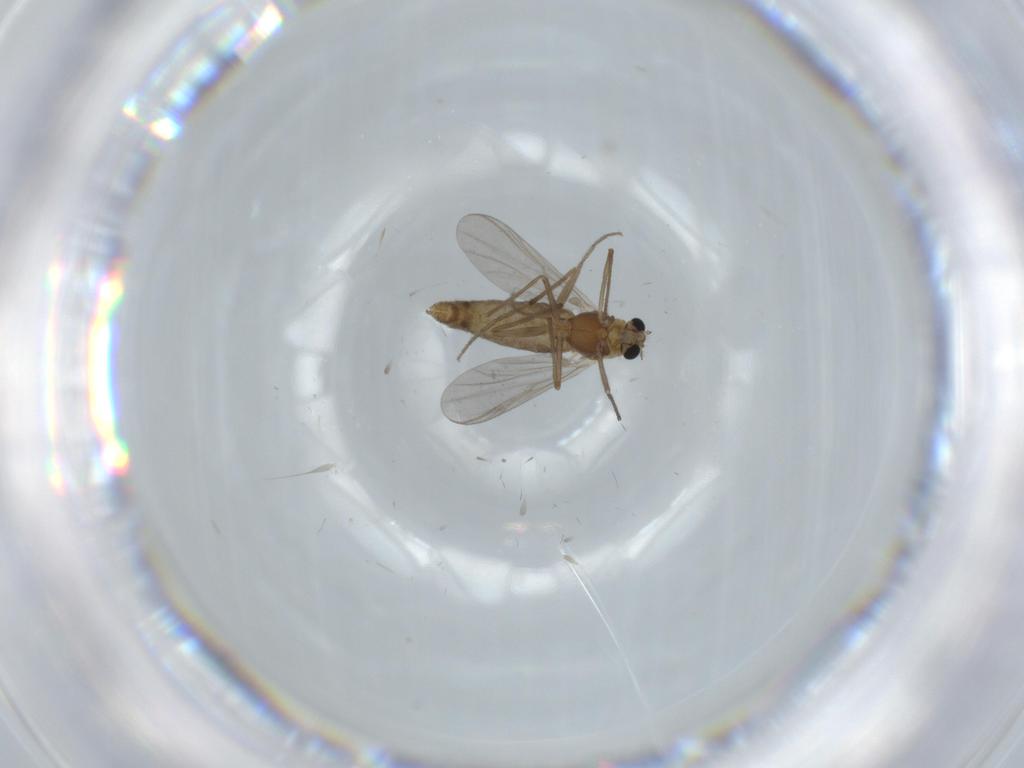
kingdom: Animalia
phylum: Arthropoda
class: Insecta
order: Diptera
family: Chironomidae
